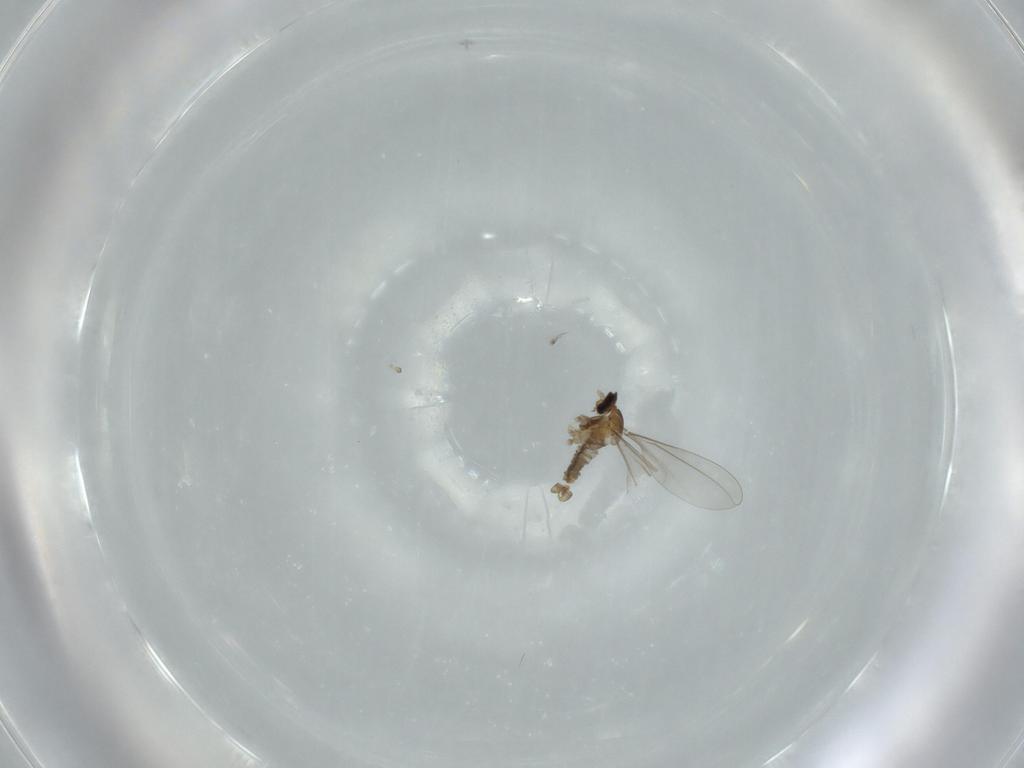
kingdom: Animalia
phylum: Arthropoda
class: Insecta
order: Diptera
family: Cecidomyiidae
